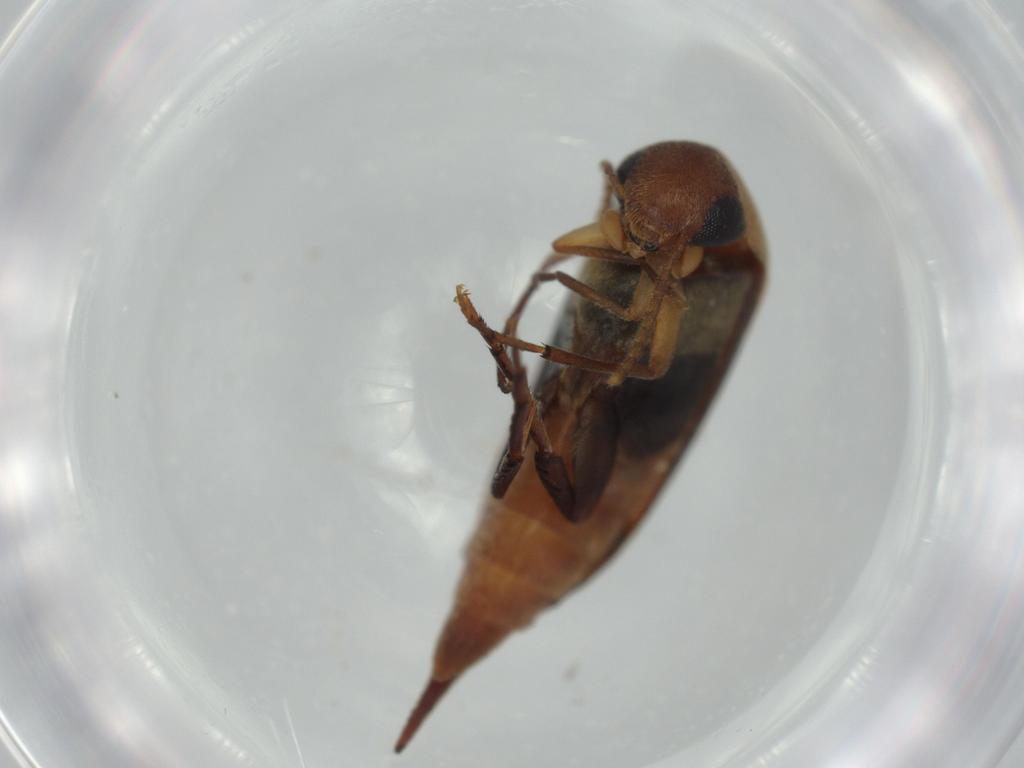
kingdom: Animalia
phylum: Arthropoda
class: Insecta
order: Coleoptera
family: Mordellidae
